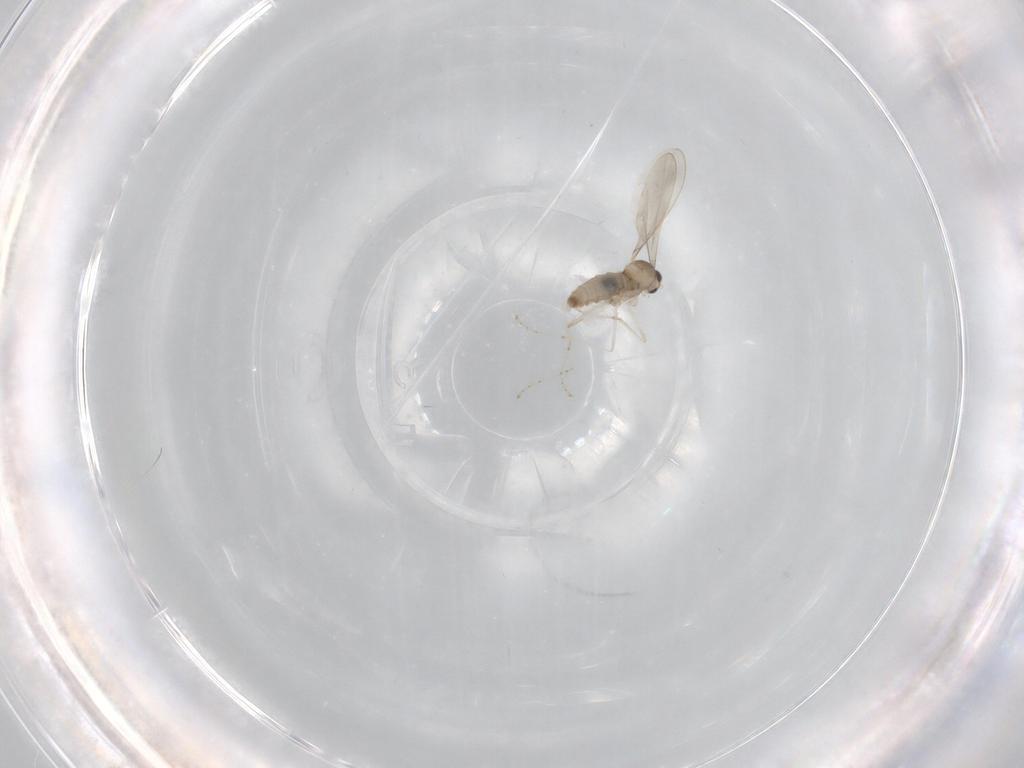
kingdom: Animalia
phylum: Arthropoda
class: Insecta
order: Diptera
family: Cecidomyiidae
